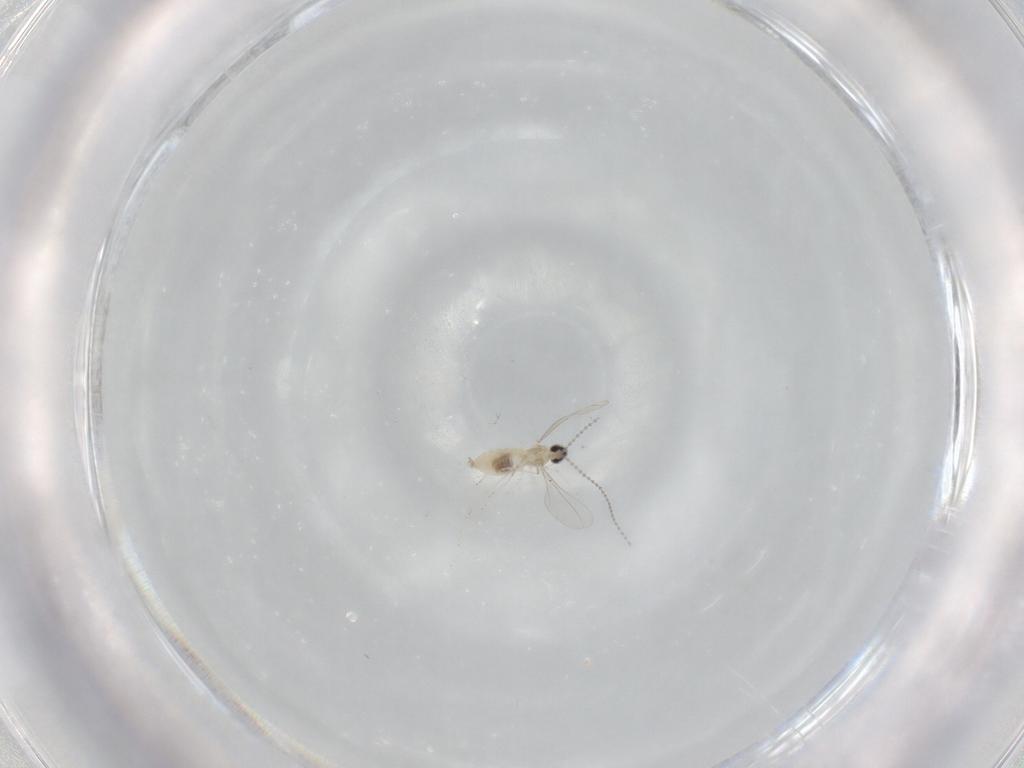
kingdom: Animalia
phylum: Arthropoda
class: Insecta
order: Diptera
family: Cecidomyiidae
